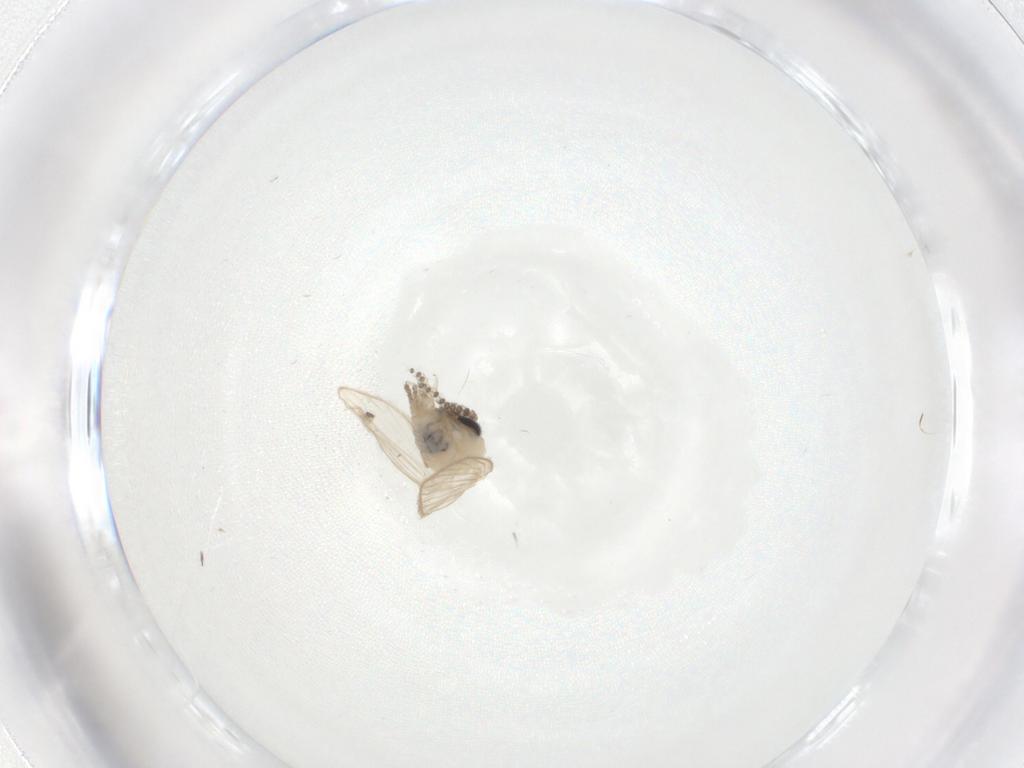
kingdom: Animalia
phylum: Arthropoda
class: Insecta
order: Diptera
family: Psychodidae
